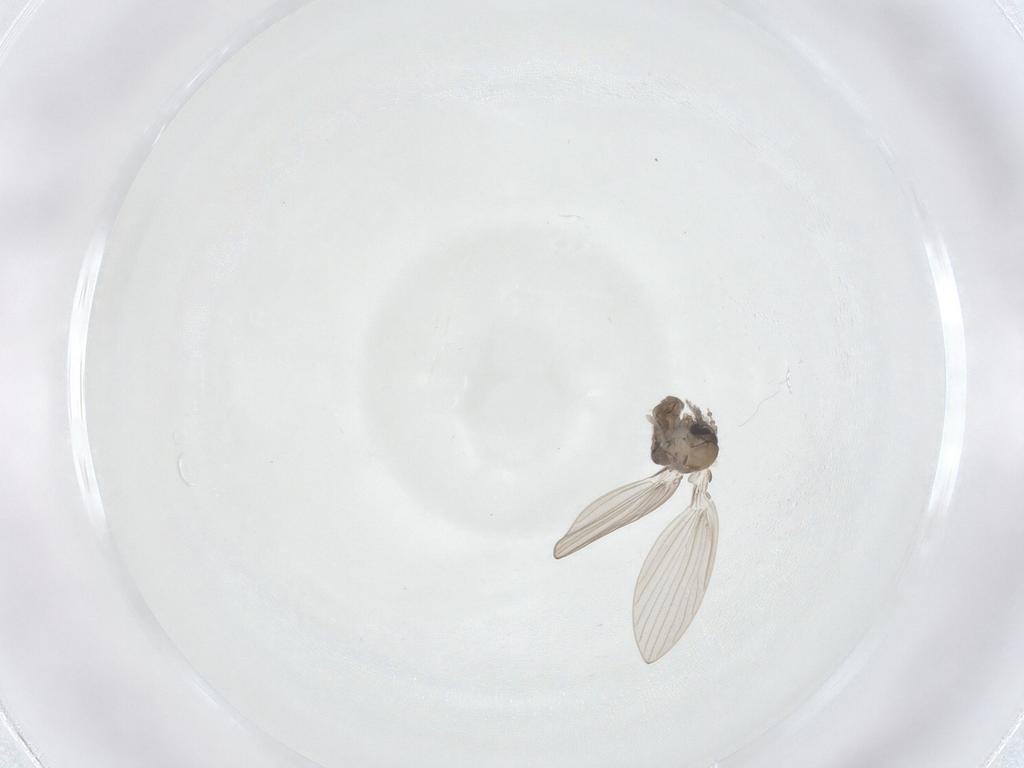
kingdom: Animalia
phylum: Arthropoda
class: Insecta
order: Diptera
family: Psychodidae
